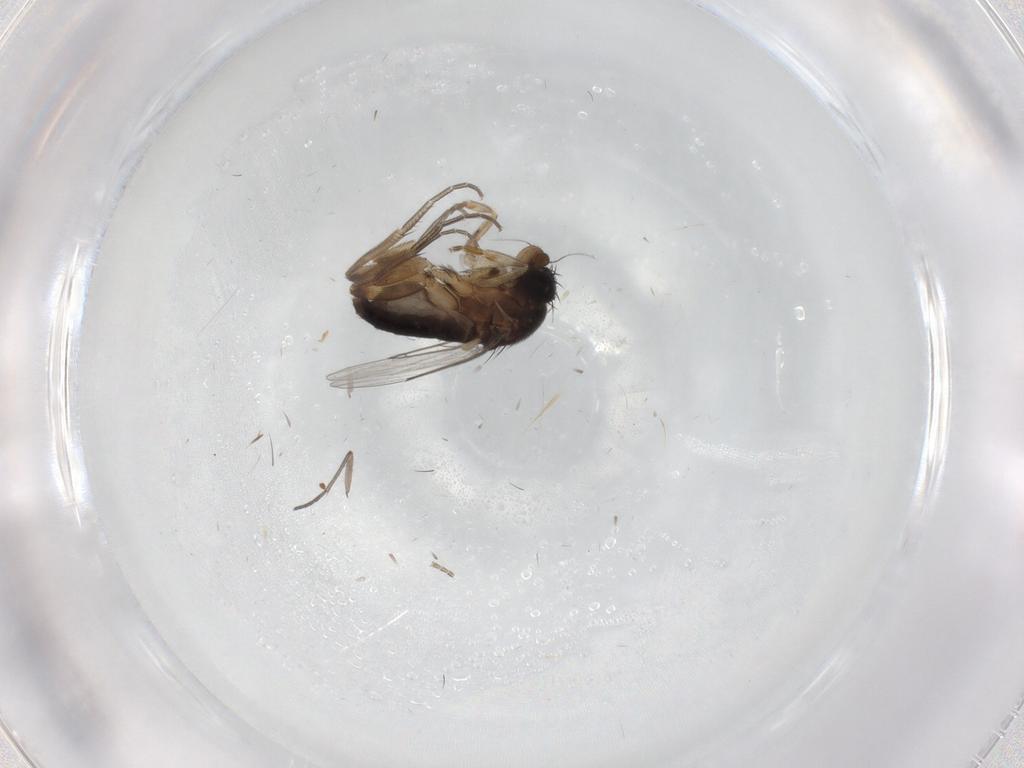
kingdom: Animalia
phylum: Arthropoda
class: Insecta
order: Diptera
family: Phoridae
